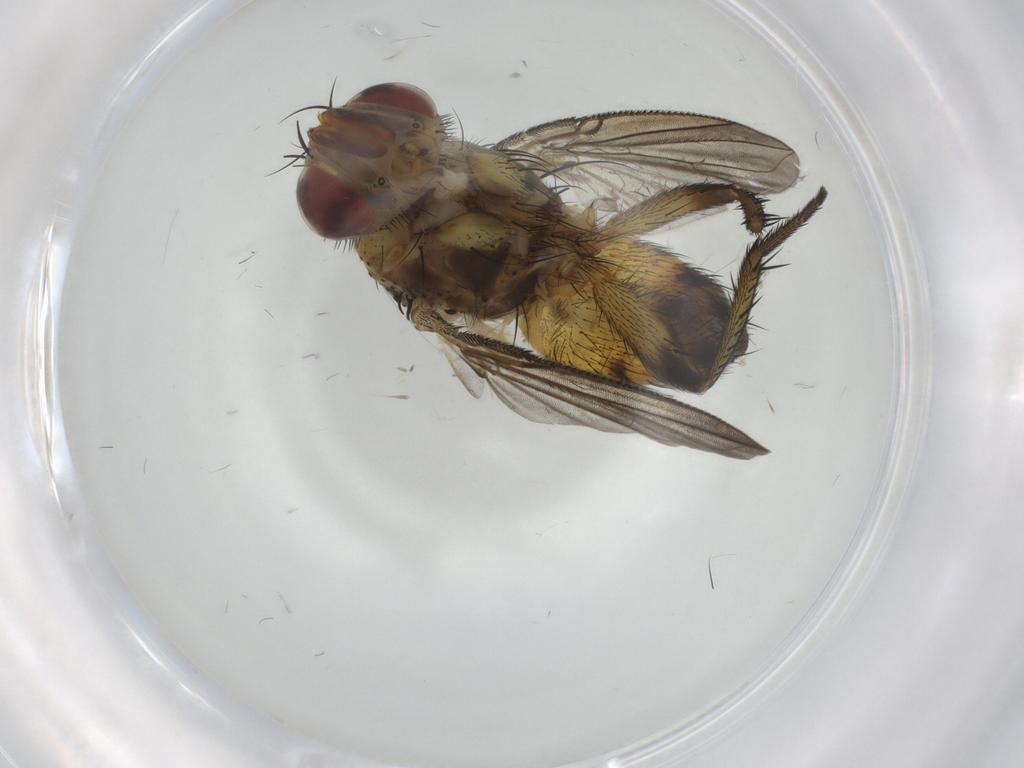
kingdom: Animalia
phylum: Arthropoda
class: Insecta
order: Diptera
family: Tachinidae
